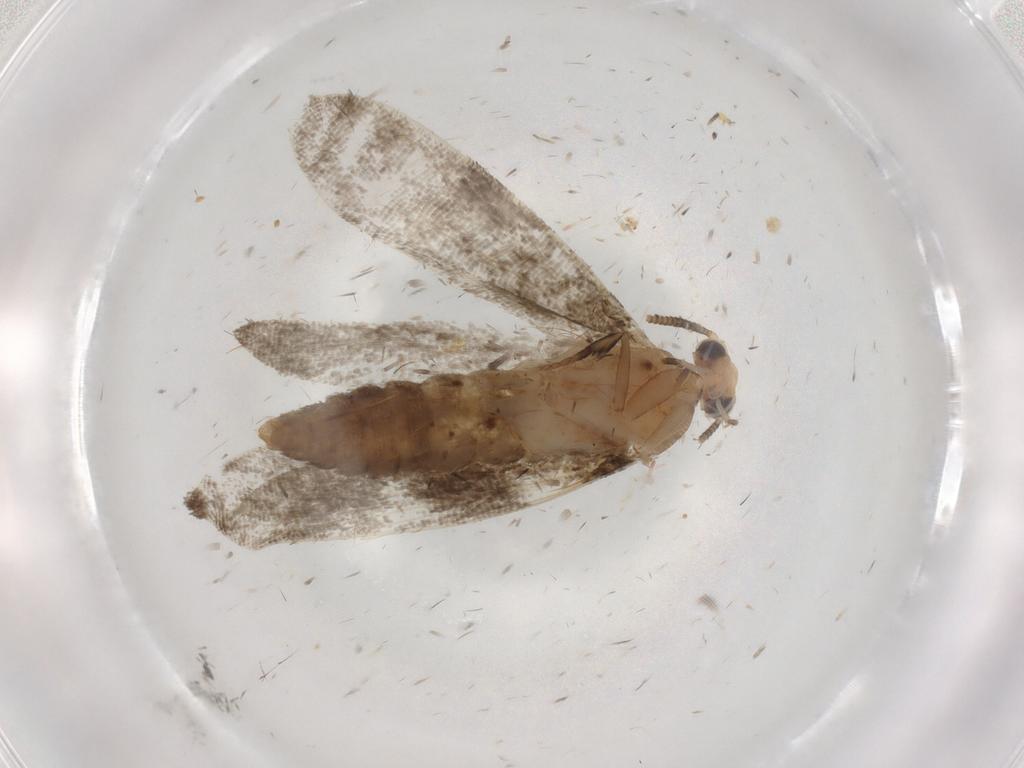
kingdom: Animalia
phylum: Arthropoda
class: Insecta
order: Lepidoptera
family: Tineidae
